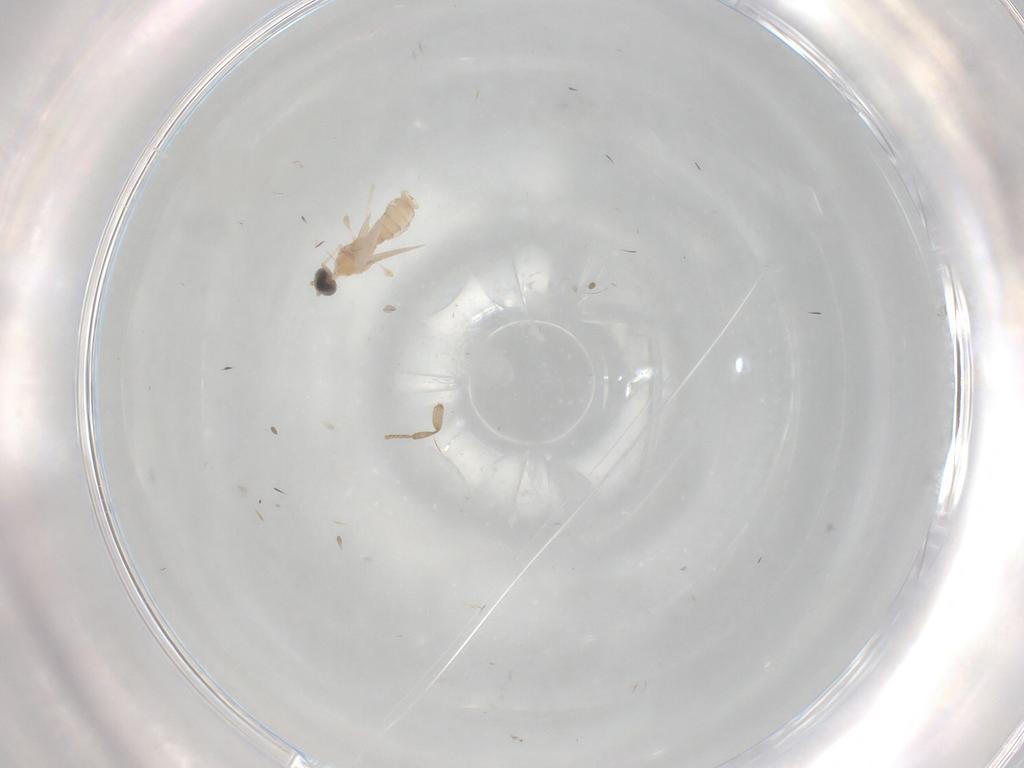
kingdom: Animalia
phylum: Arthropoda
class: Insecta
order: Diptera
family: Cecidomyiidae
